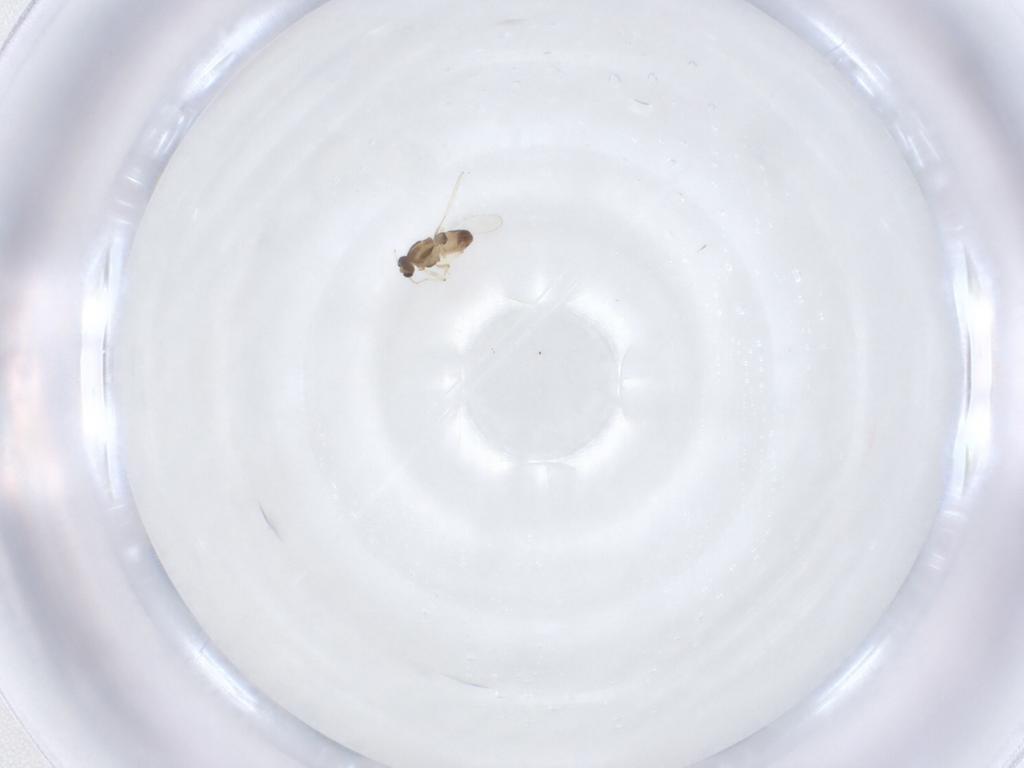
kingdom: Animalia
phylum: Arthropoda
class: Insecta
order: Diptera
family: Chironomidae
